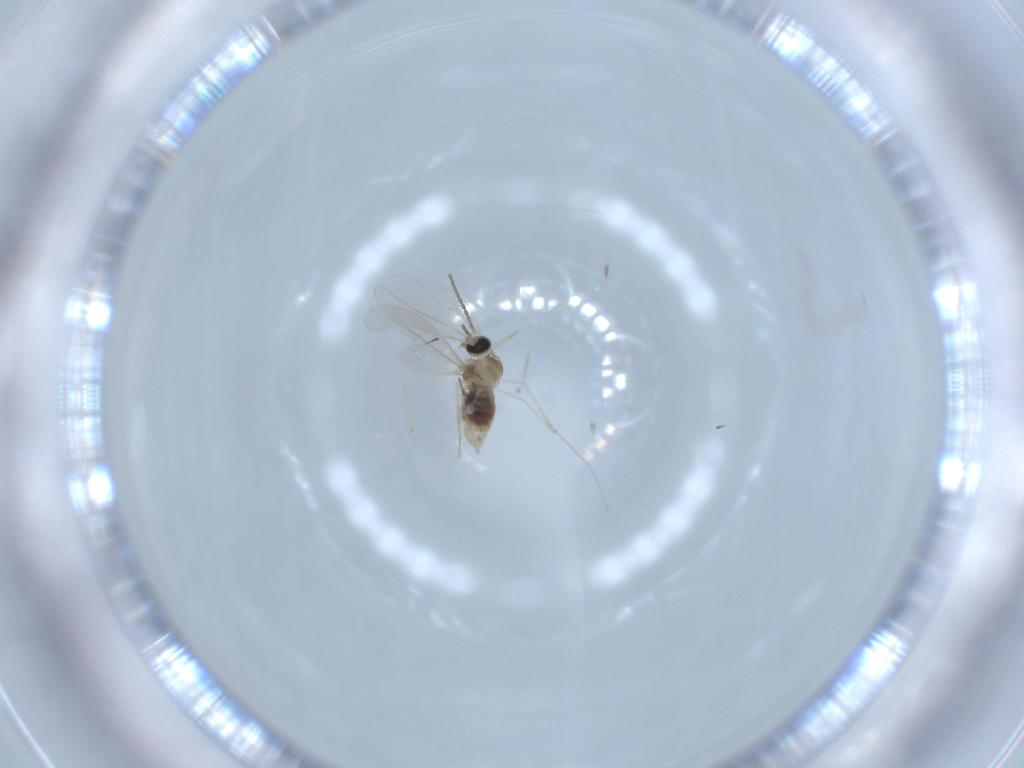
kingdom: Animalia
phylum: Arthropoda
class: Insecta
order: Diptera
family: Cecidomyiidae
